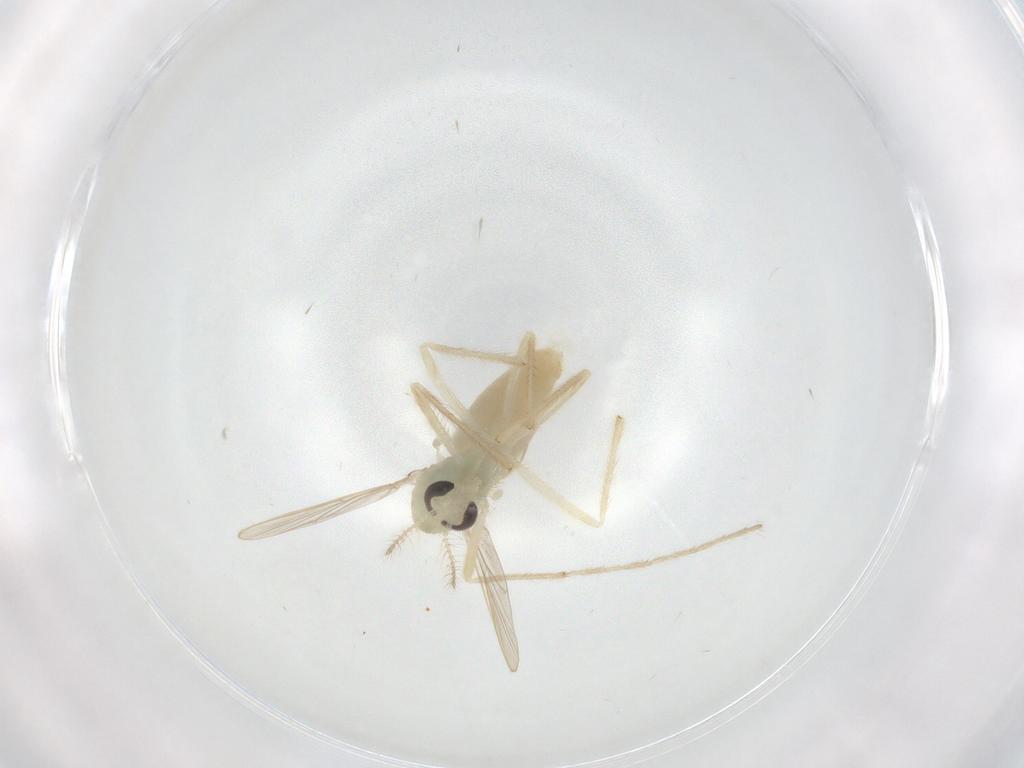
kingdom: Animalia
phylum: Arthropoda
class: Insecta
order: Diptera
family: Chironomidae
